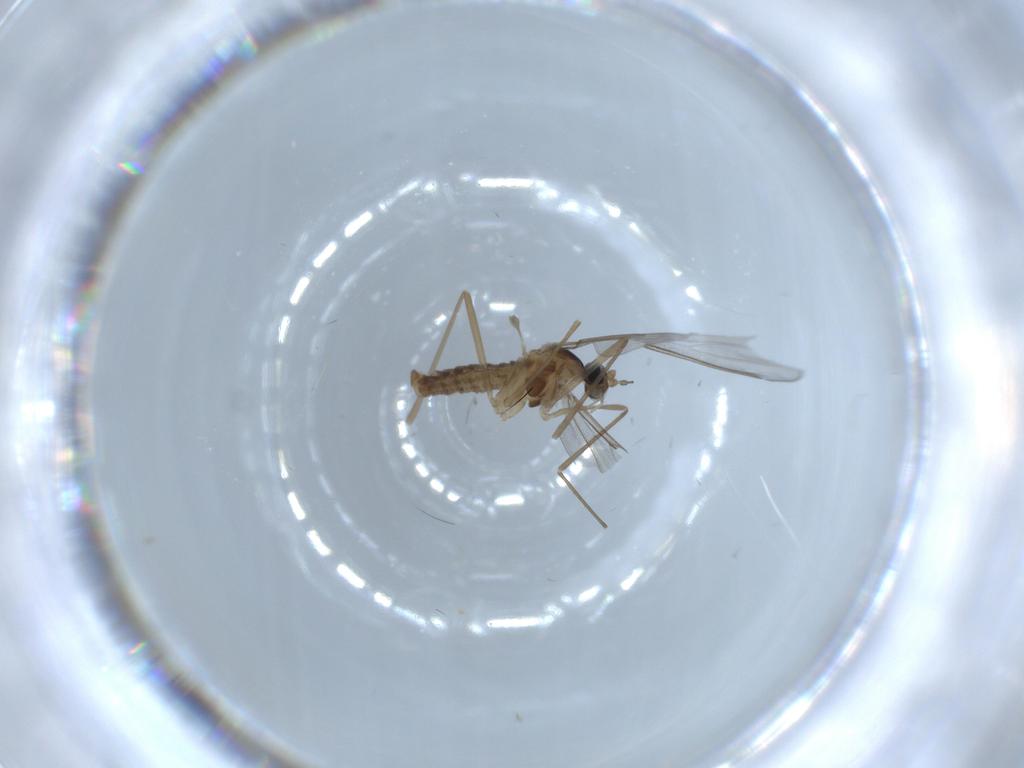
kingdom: Animalia
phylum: Arthropoda
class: Insecta
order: Diptera
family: Cecidomyiidae
